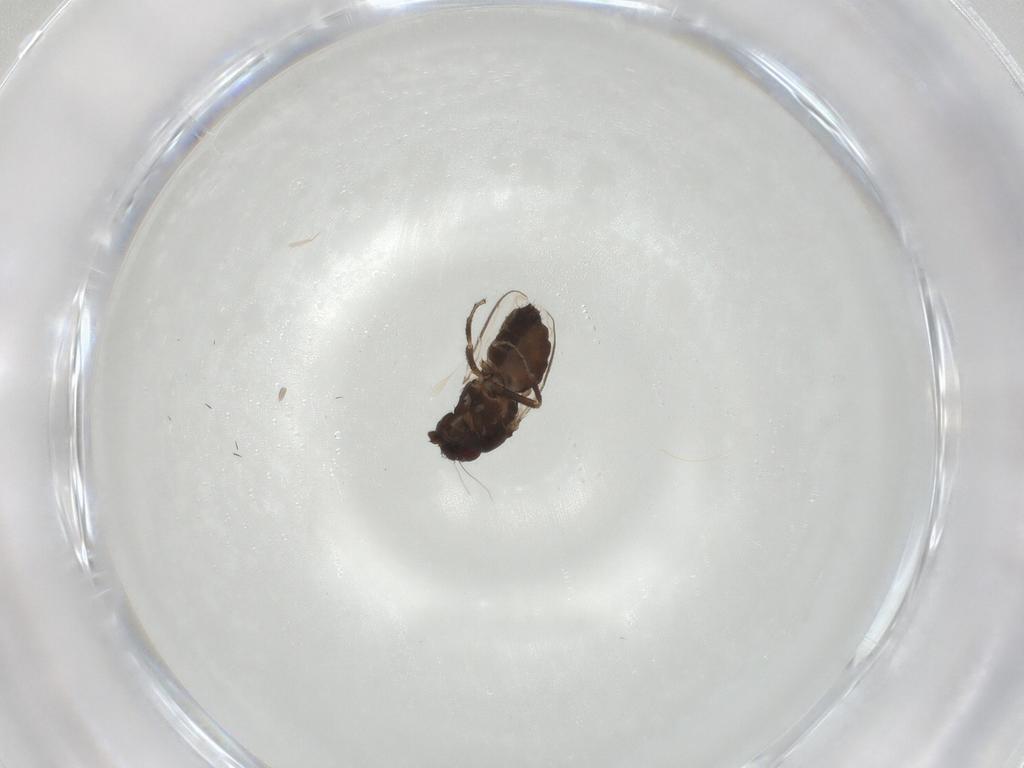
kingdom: Animalia
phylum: Arthropoda
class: Insecta
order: Diptera
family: Sphaeroceridae
